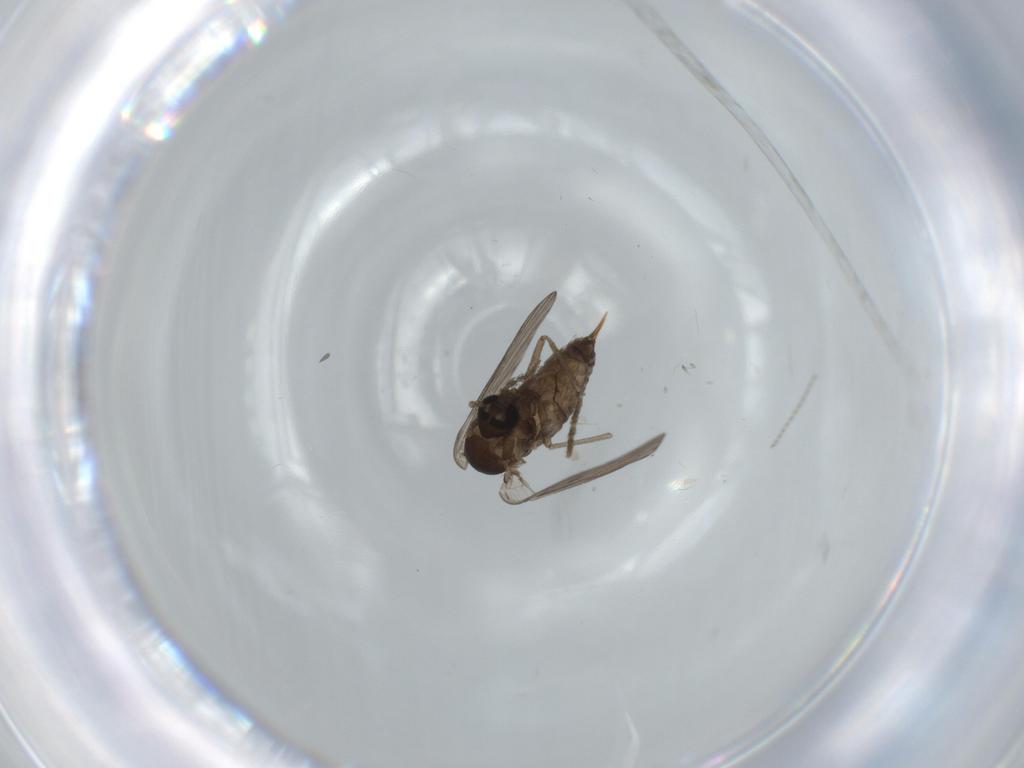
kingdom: Animalia
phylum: Arthropoda
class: Insecta
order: Diptera
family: Psychodidae
